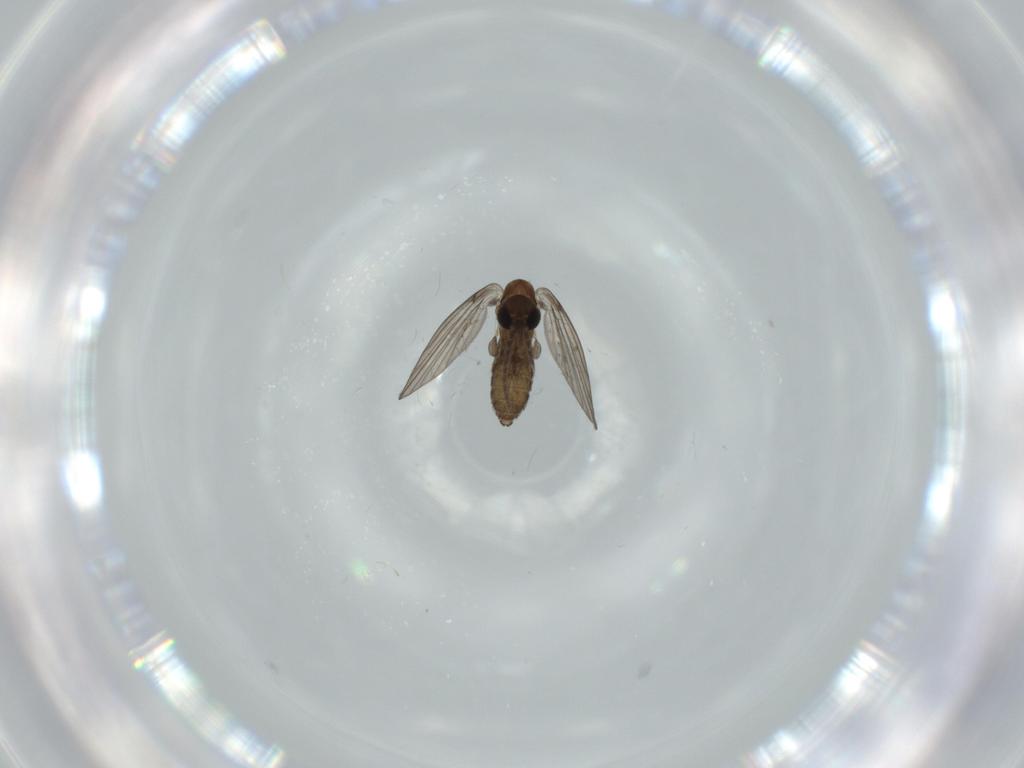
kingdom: Animalia
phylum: Arthropoda
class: Insecta
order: Diptera
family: Psychodidae
